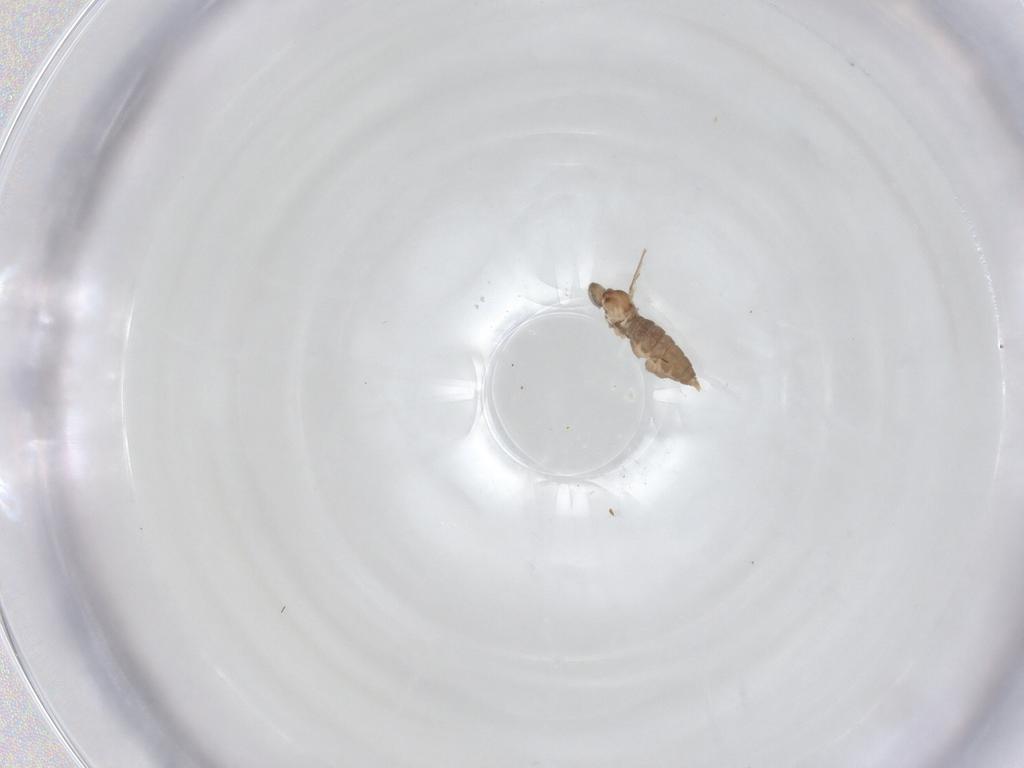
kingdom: Animalia
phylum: Arthropoda
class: Insecta
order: Diptera
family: Cecidomyiidae
